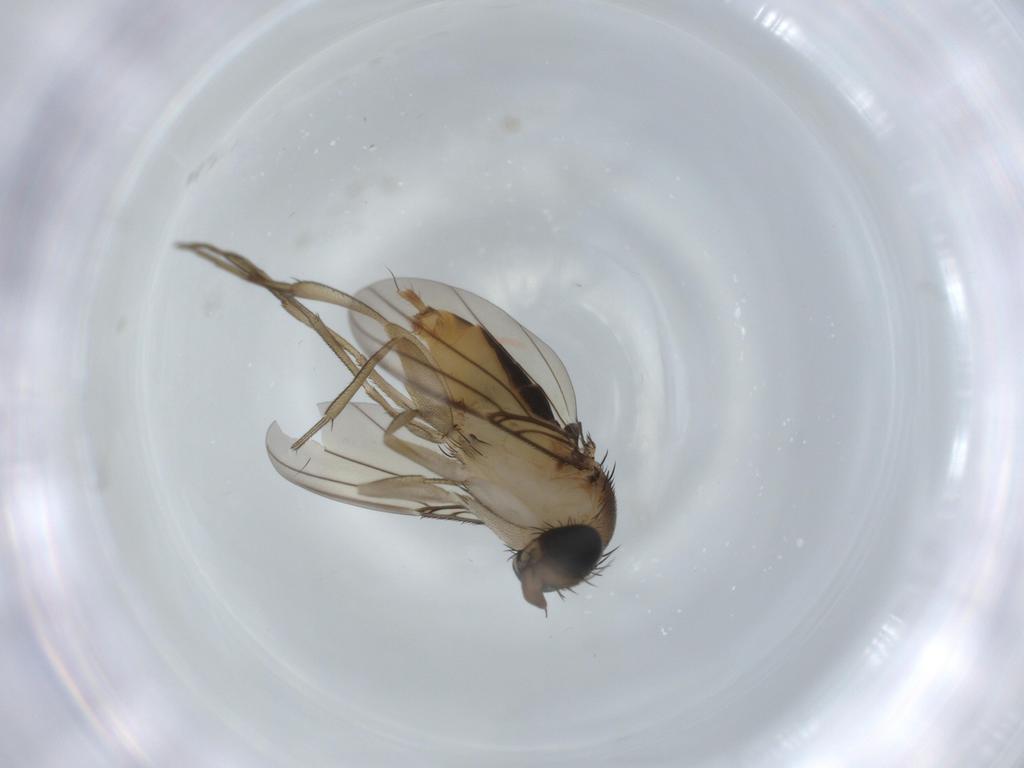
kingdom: Animalia
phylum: Arthropoda
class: Insecta
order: Diptera
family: Phoridae
